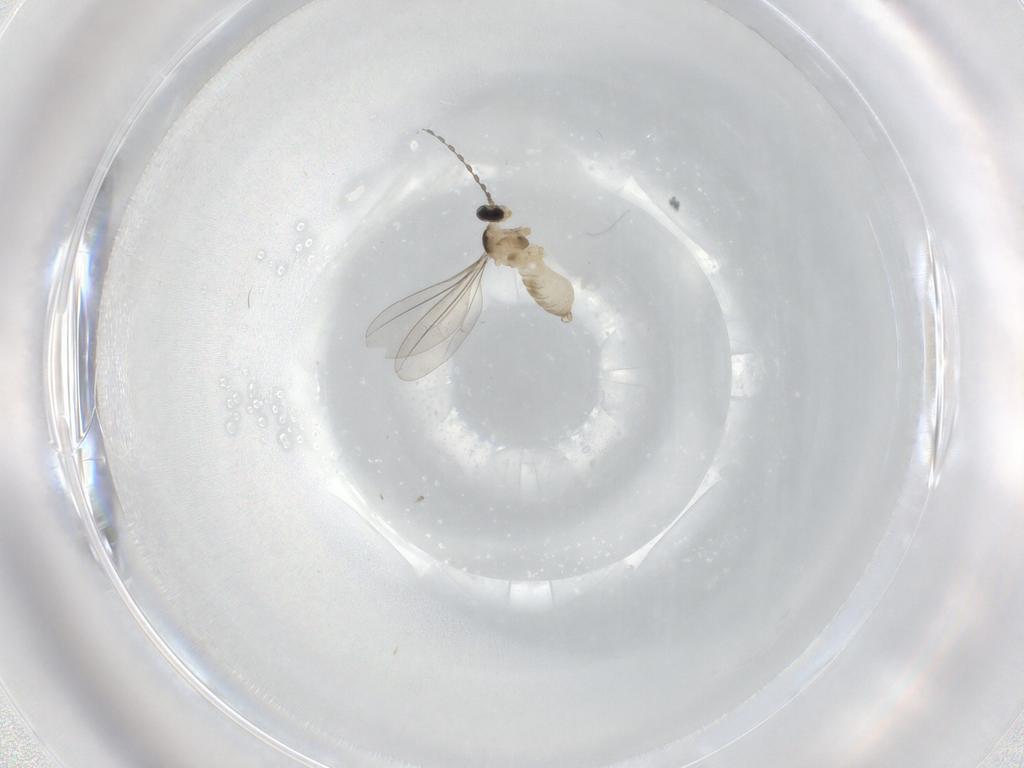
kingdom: Animalia
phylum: Arthropoda
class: Insecta
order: Diptera
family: Cecidomyiidae
